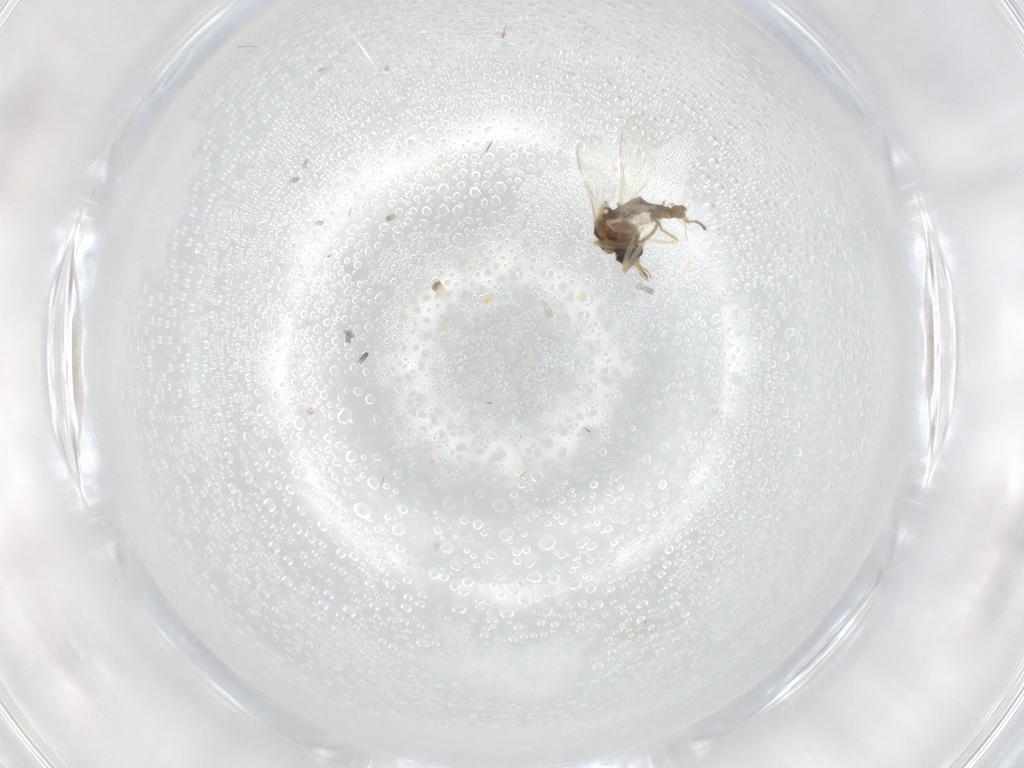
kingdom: Animalia
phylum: Arthropoda
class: Insecta
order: Diptera
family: Ceratopogonidae
